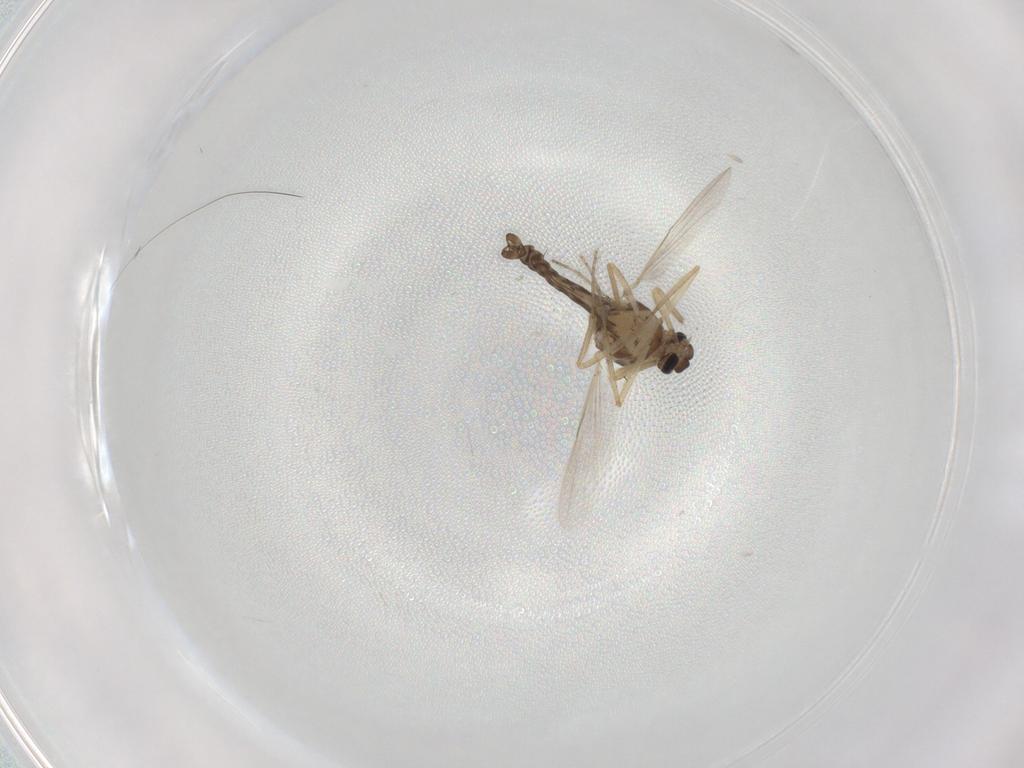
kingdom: Animalia
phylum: Arthropoda
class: Insecta
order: Diptera
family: Ceratopogonidae
